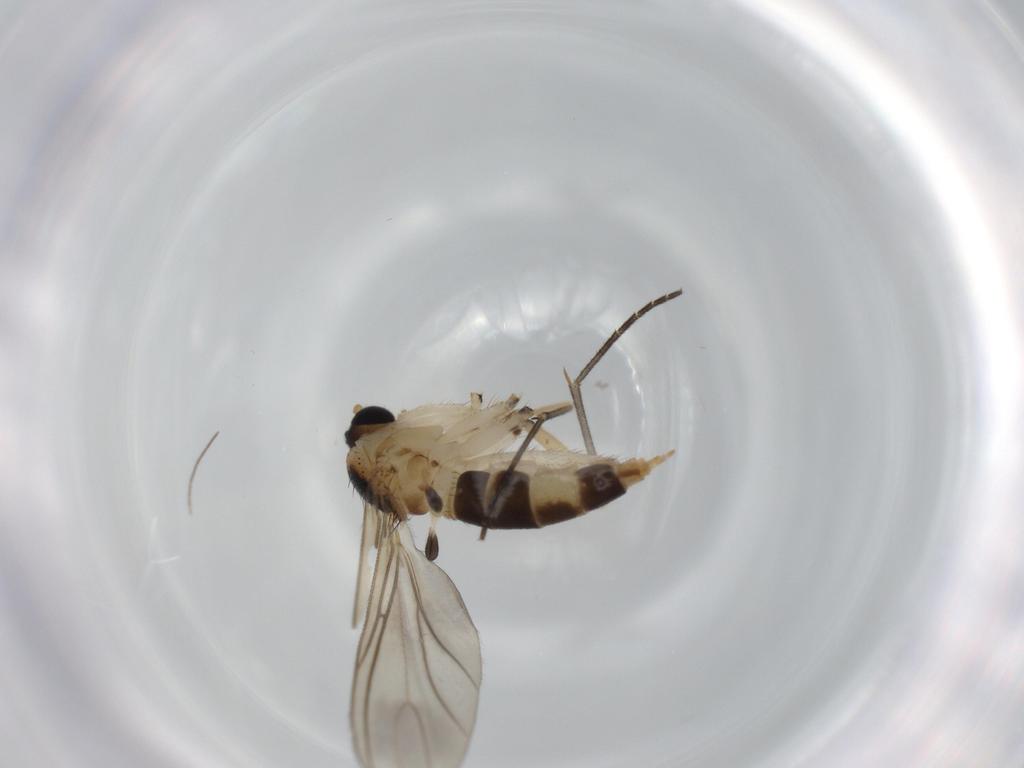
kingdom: Animalia
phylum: Arthropoda
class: Insecta
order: Diptera
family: Sciaridae
